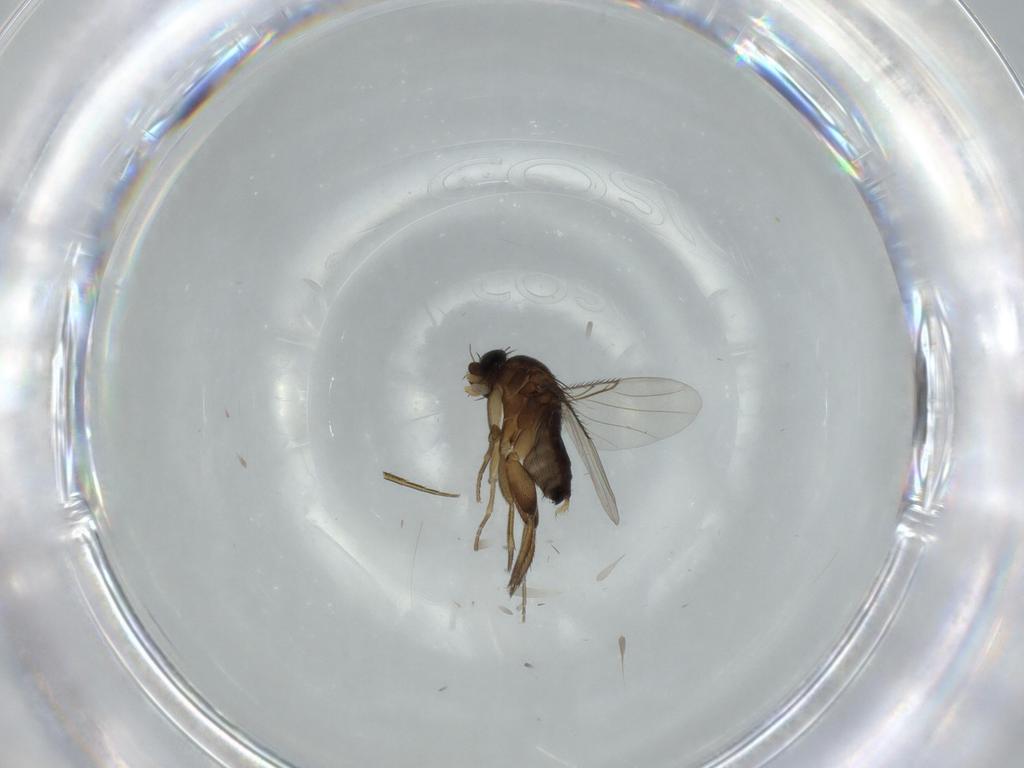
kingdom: Animalia
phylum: Arthropoda
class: Insecta
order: Diptera
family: Phoridae
